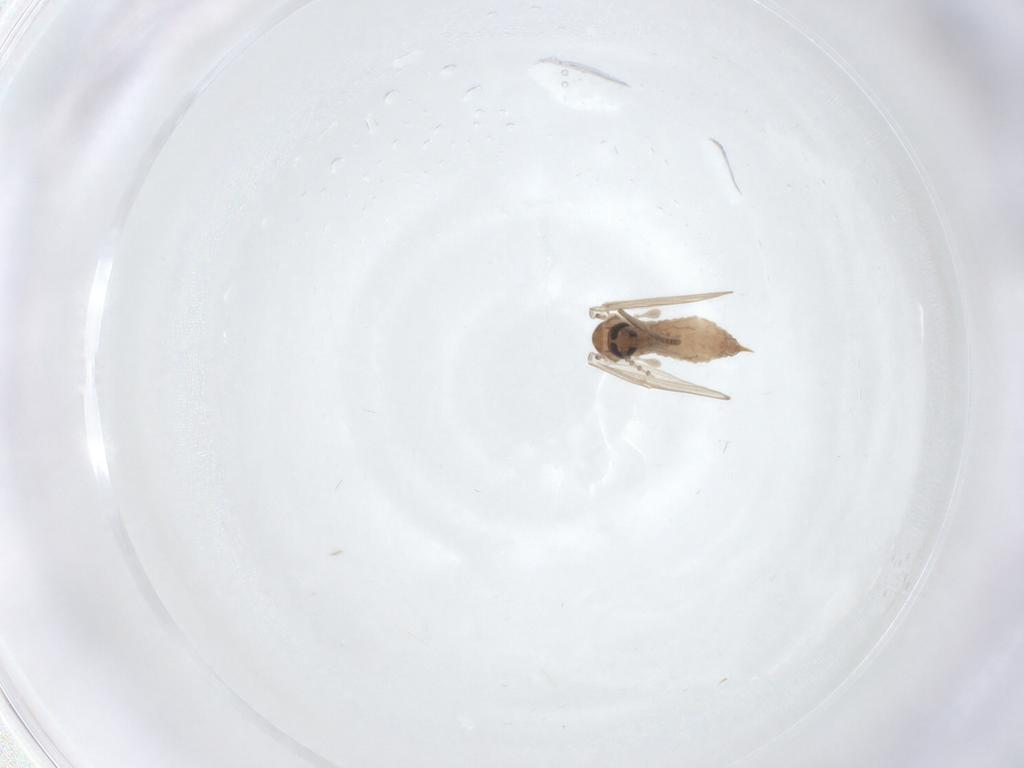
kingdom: Animalia
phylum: Arthropoda
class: Insecta
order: Diptera
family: Psychodidae
